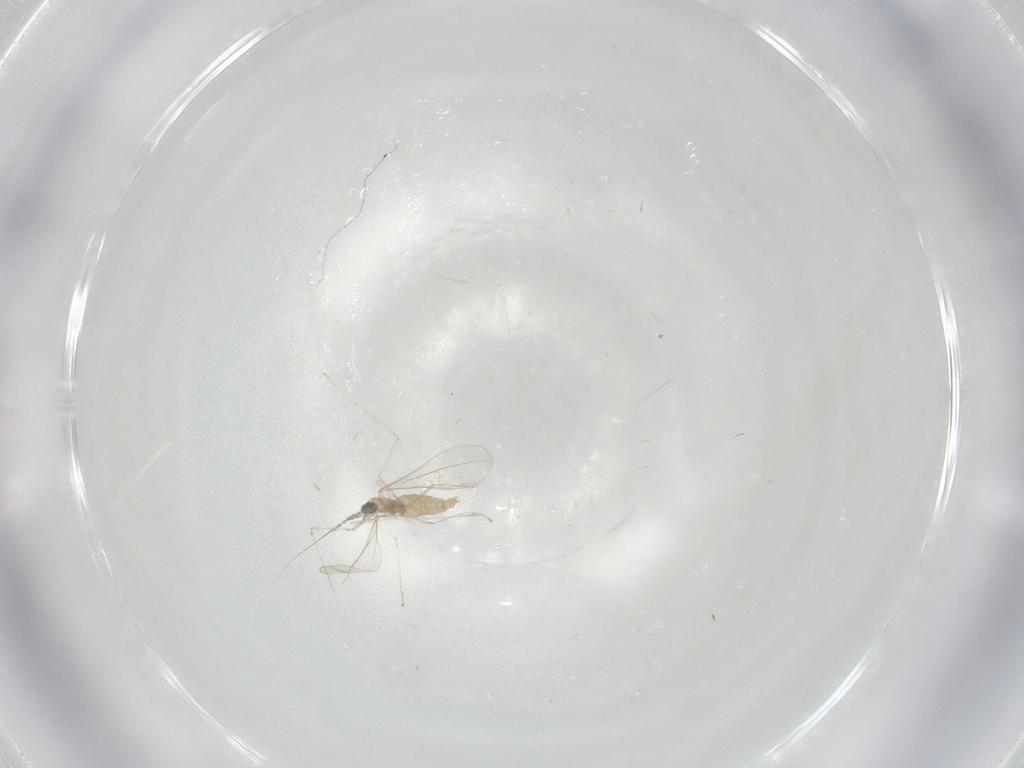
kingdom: Animalia
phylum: Arthropoda
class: Insecta
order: Diptera
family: Cecidomyiidae
